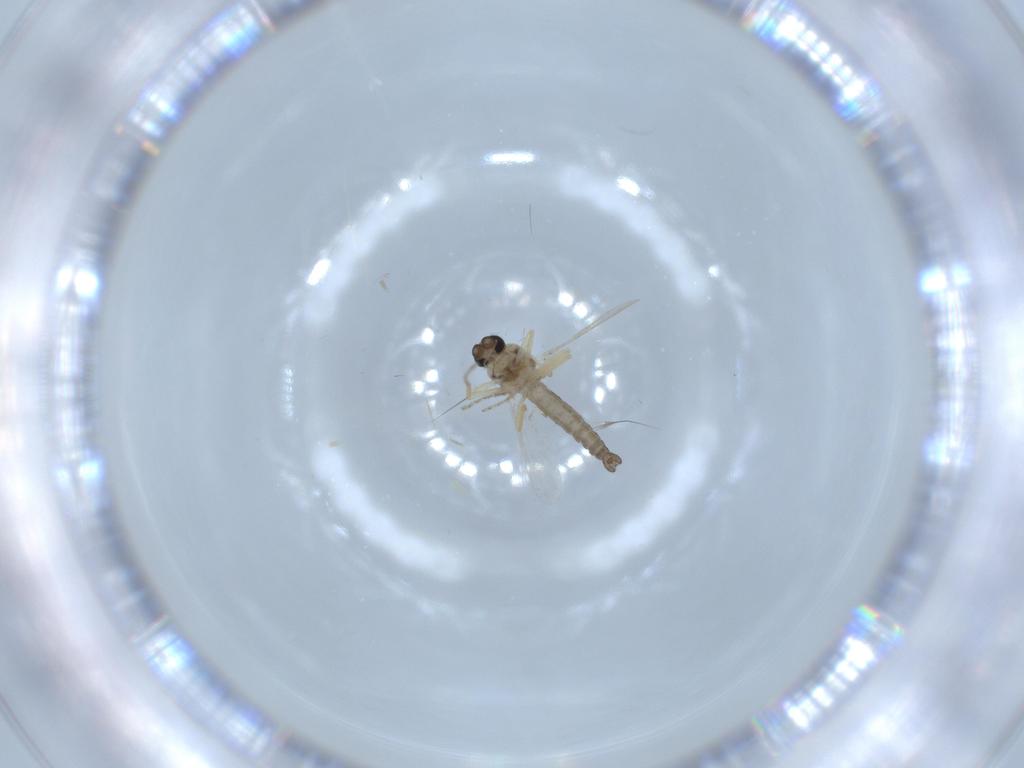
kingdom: Animalia
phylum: Arthropoda
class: Insecta
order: Diptera
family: Ceratopogonidae
